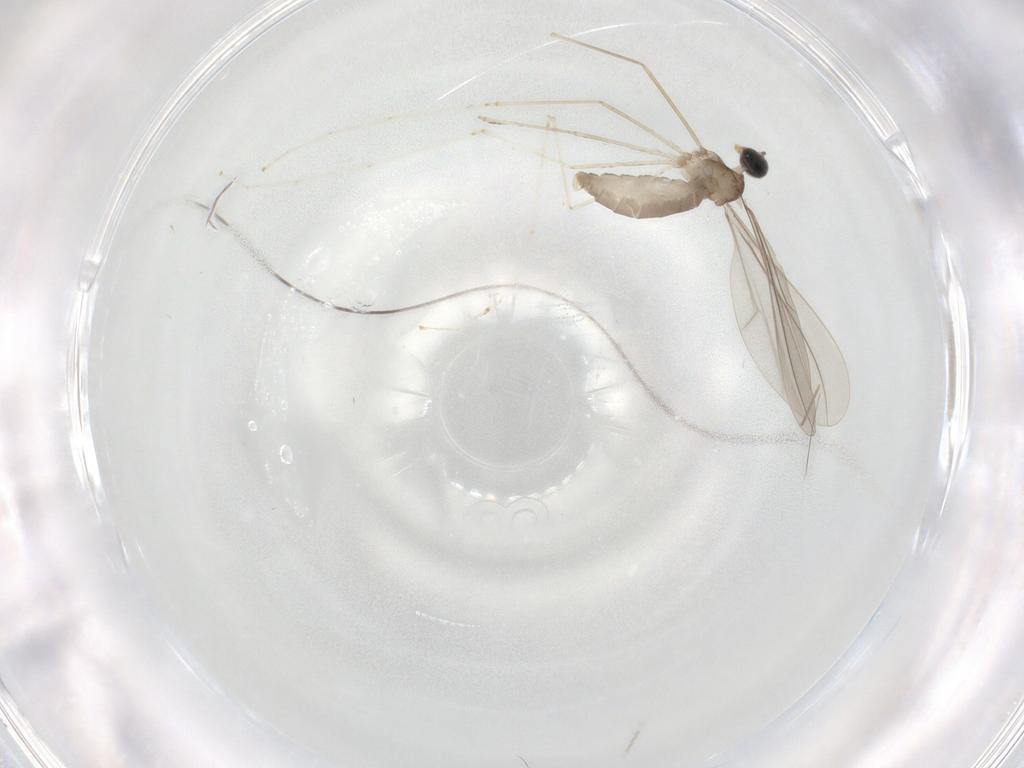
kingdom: Animalia
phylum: Arthropoda
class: Insecta
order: Diptera
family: Cecidomyiidae
